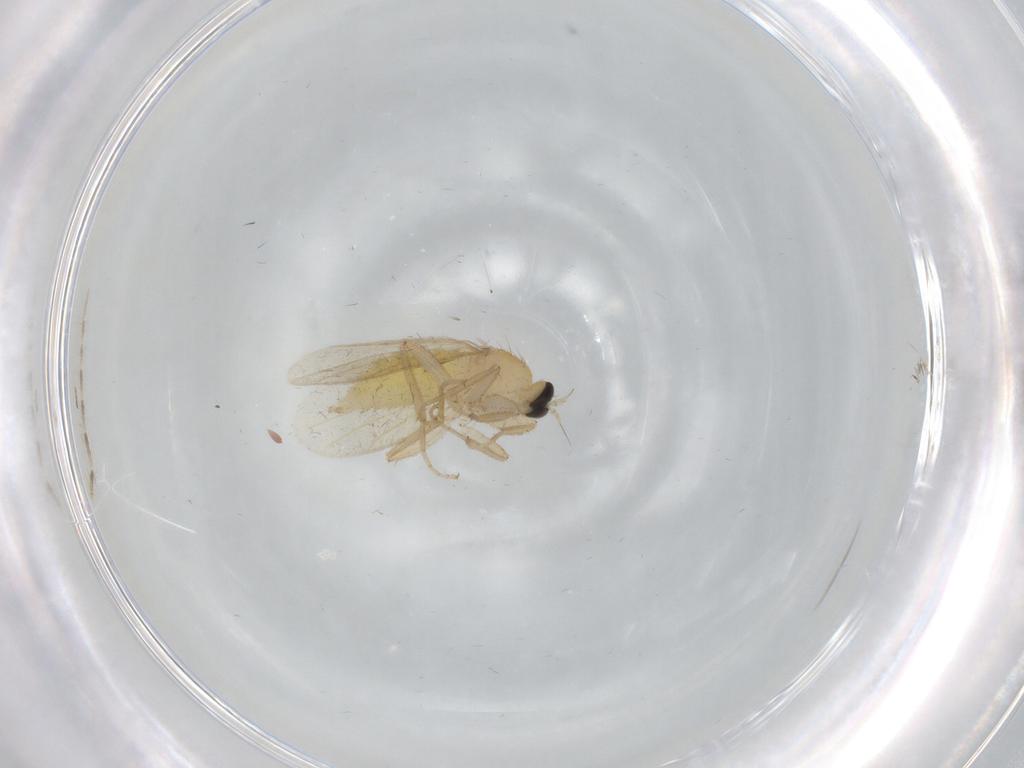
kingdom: Animalia
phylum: Arthropoda
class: Insecta
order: Diptera
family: Hybotidae
